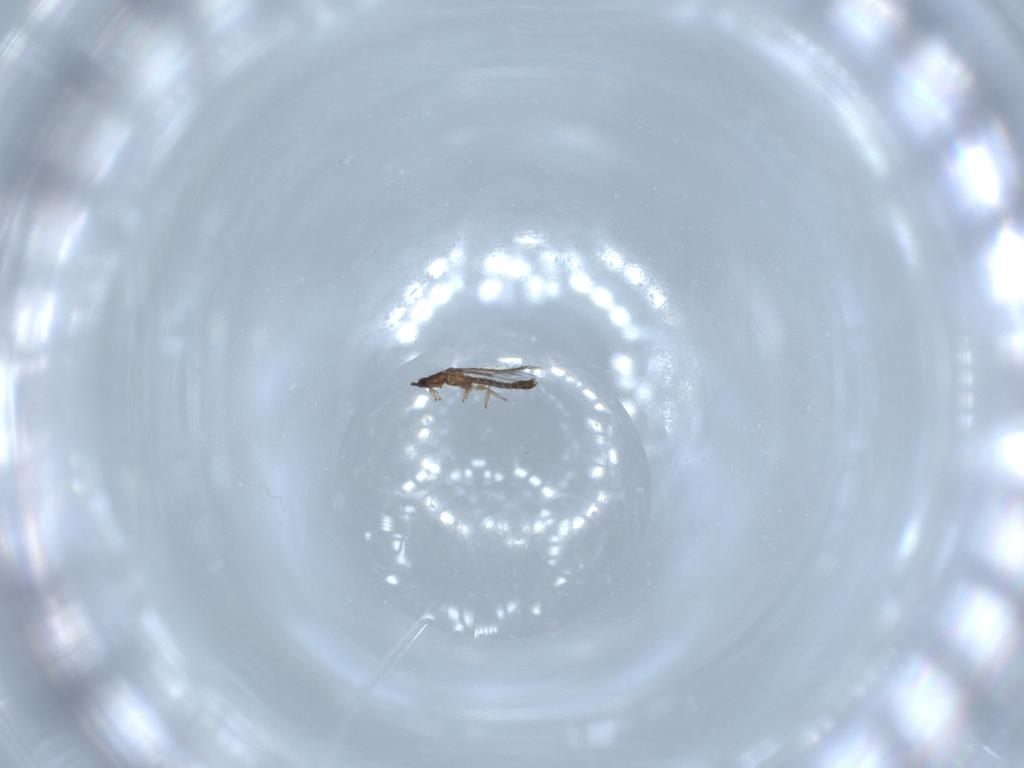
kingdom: Animalia
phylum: Arthropoda
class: Insecta
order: Thysanoptera
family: Thripidae
